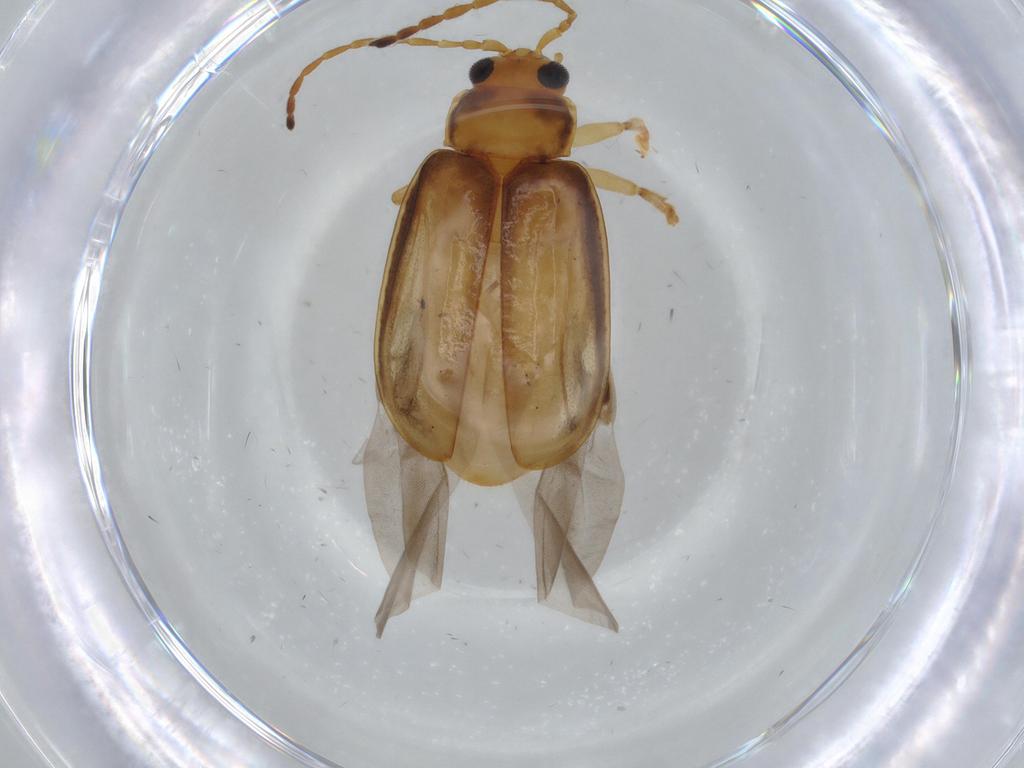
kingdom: Animalia
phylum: Arthropoda
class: Insecta
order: Coleoptera
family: Chrysomelidae
